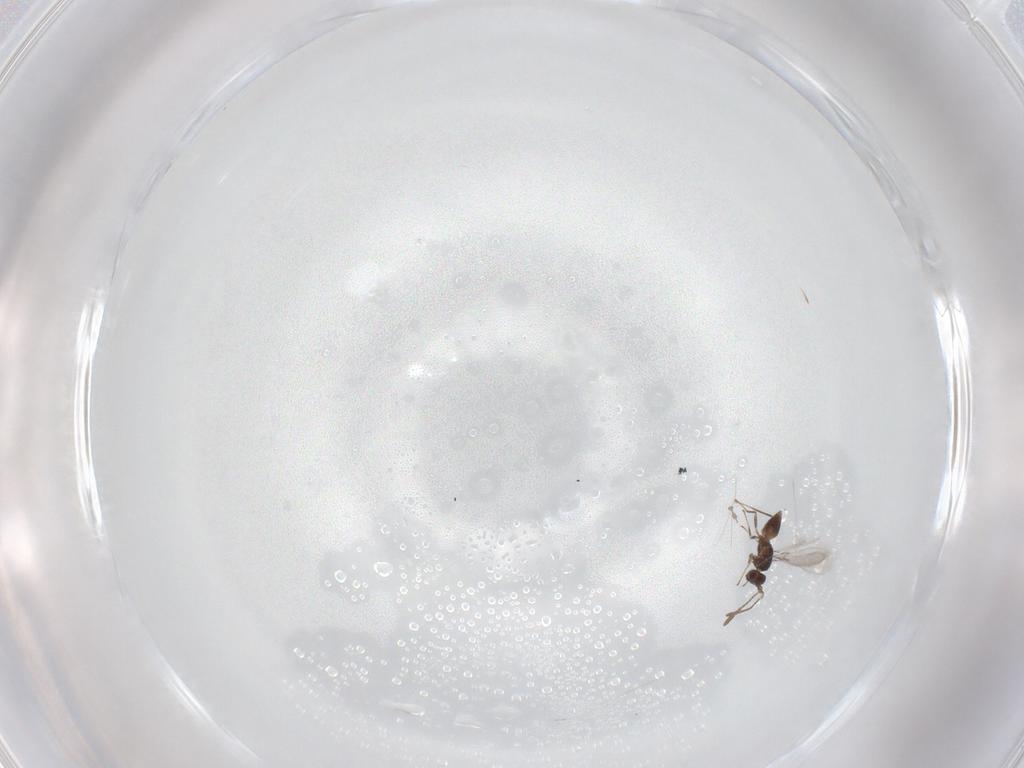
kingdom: Animalia
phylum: Arthropoda
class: Insecta
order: Hymenoptera
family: Mymaridae
